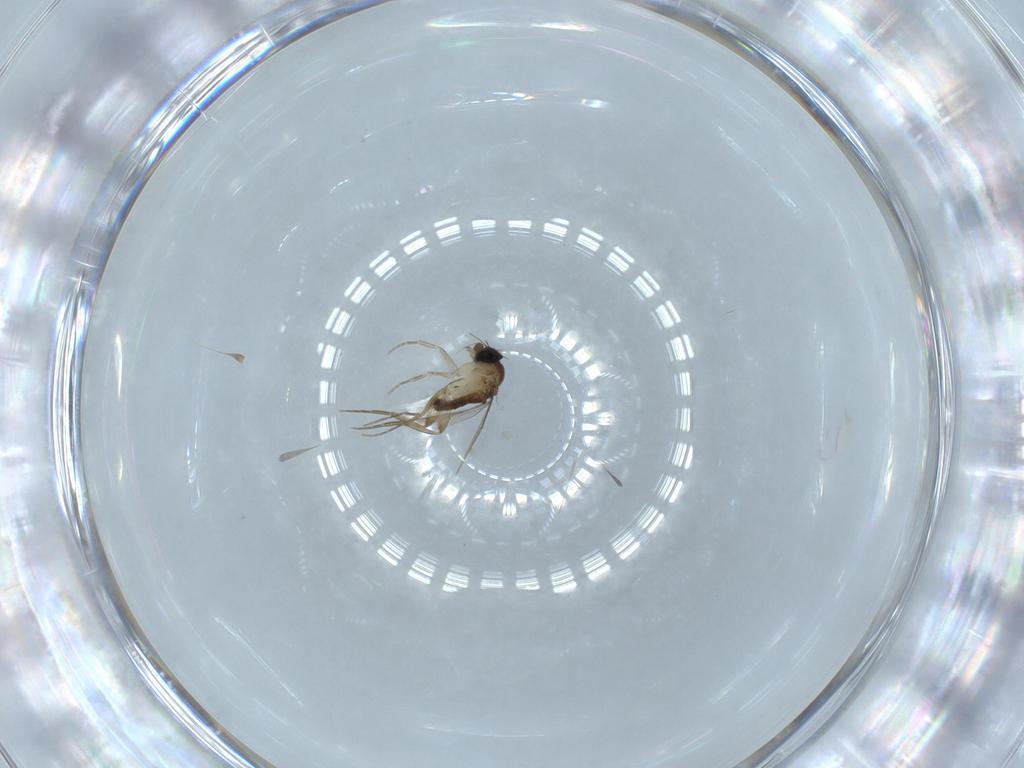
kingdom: Animalia
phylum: Arthropoda
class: Insecta
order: Diptera
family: Phoridae
